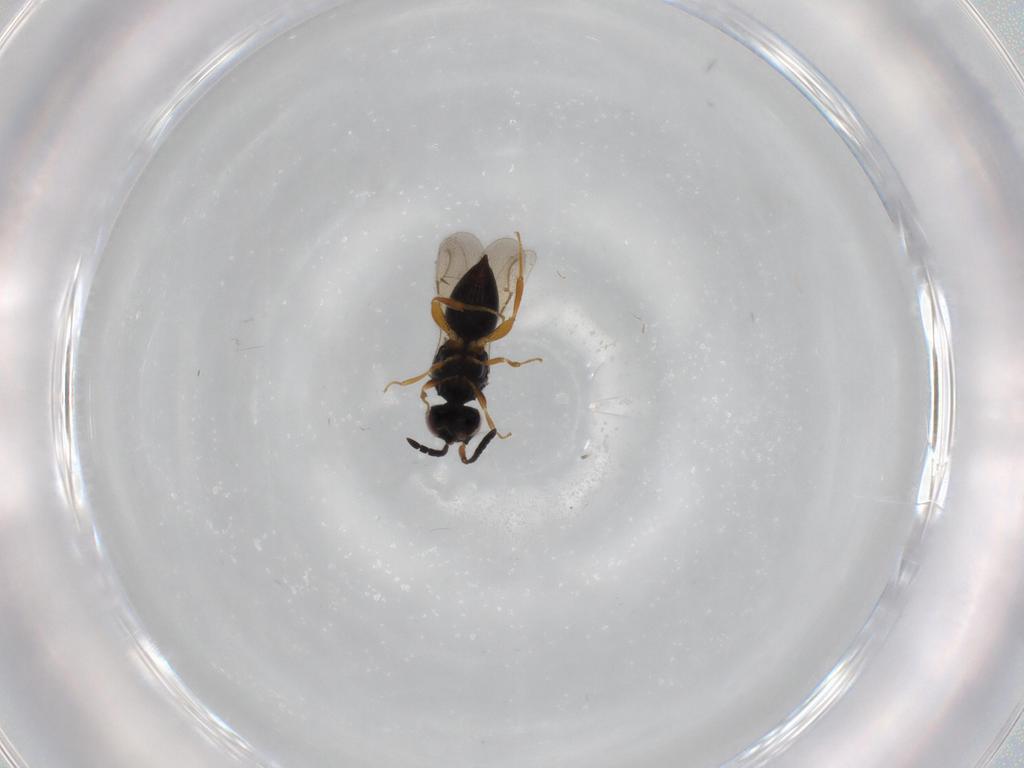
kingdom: Animalia
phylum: Arthropoda
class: Insecta
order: Hymenoptera
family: Ceraphronidae
